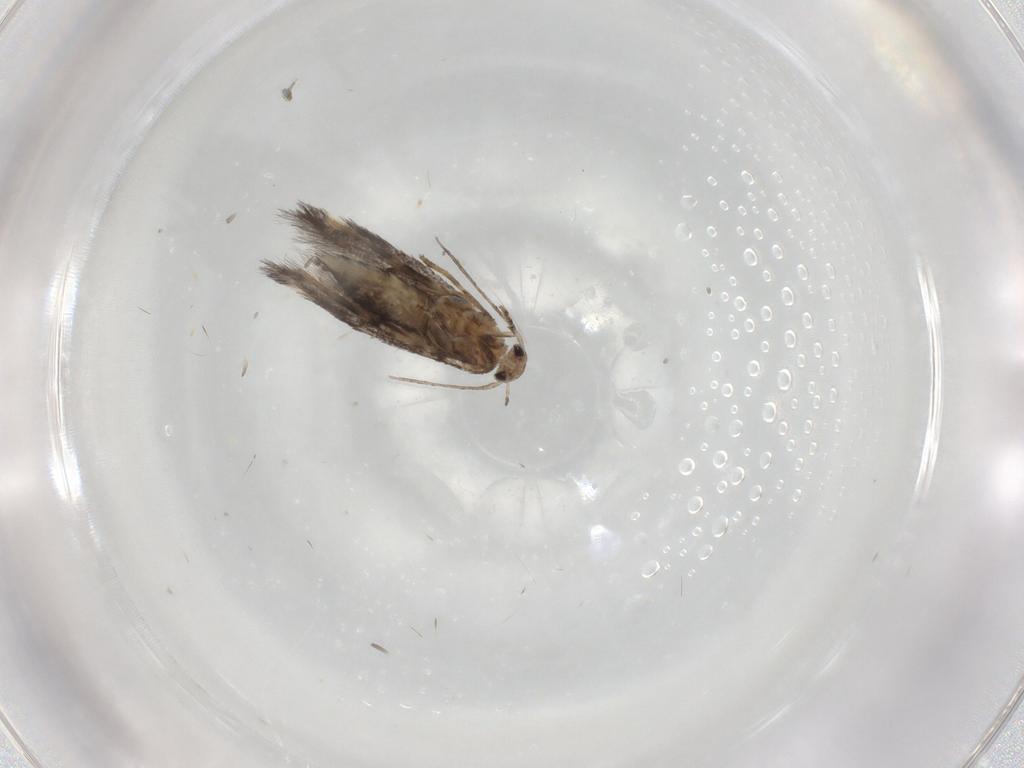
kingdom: Animalia
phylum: Arthropoda
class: Insecta
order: Lepidoptera
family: Elachistidae
